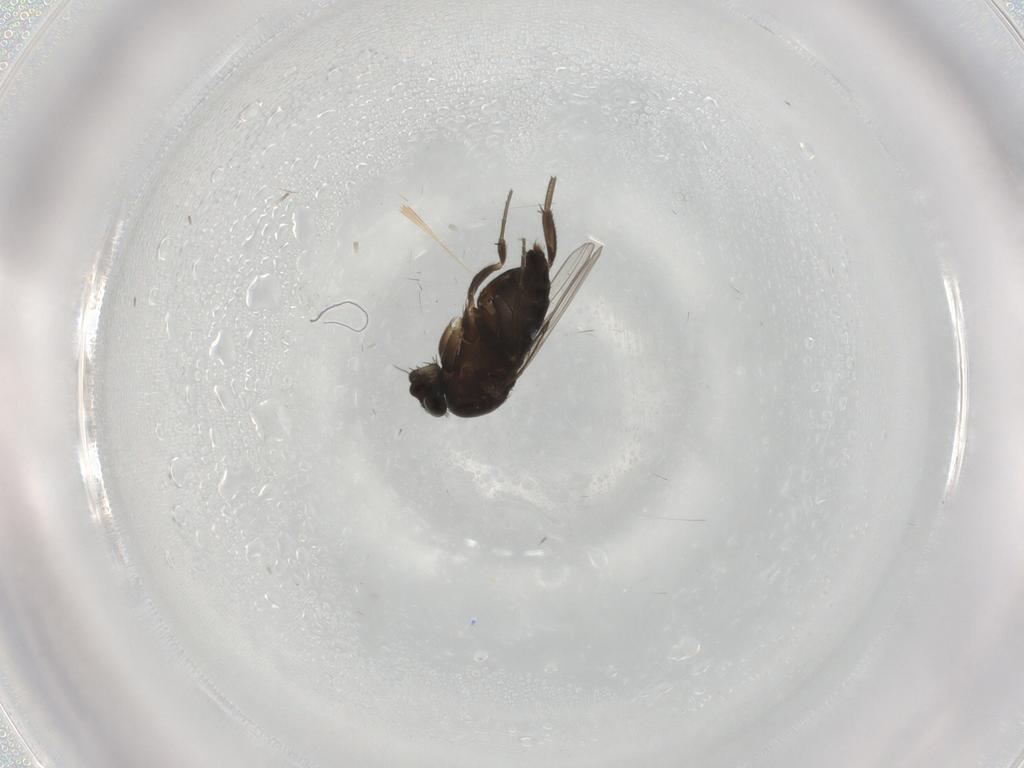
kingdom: Animalia
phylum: Arthropoda
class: Insecta
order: Diptera
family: Phoridae
